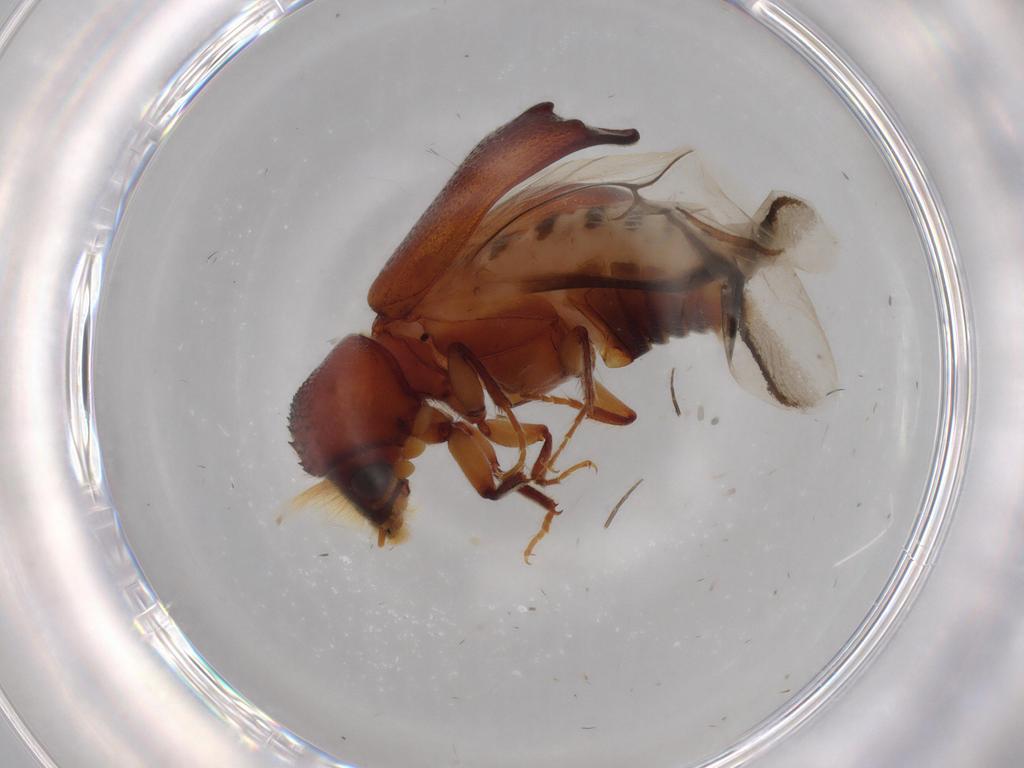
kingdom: Animalia
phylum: Arthropoda
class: Insecta
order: Coleoptera
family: Bostrichidae
